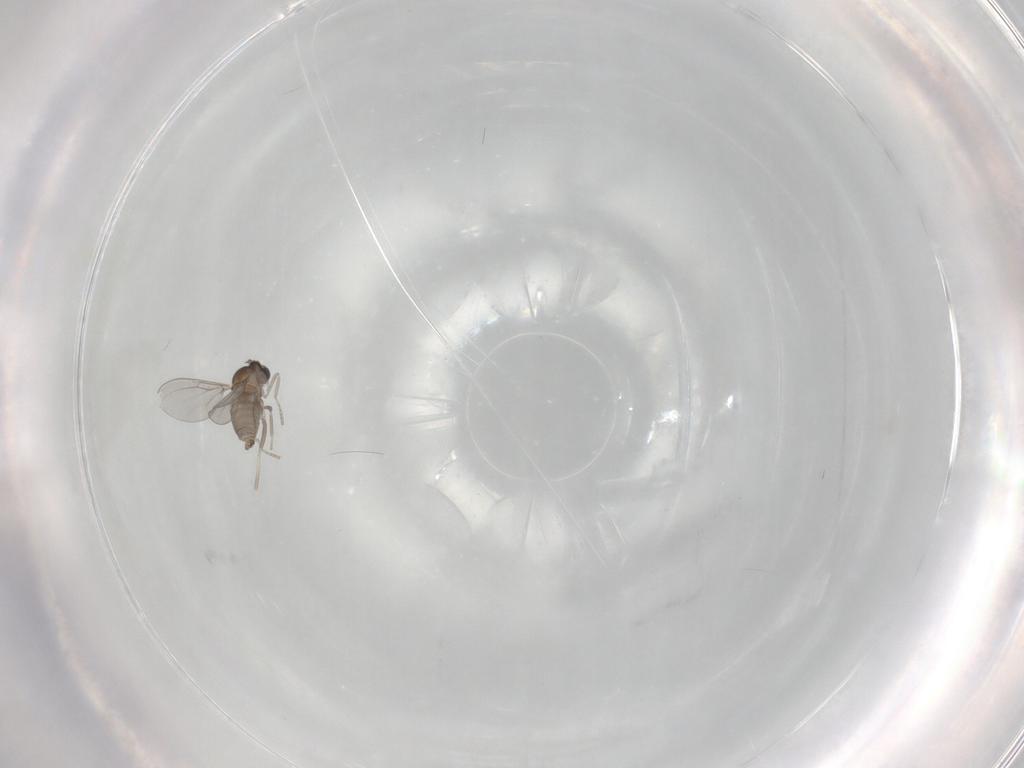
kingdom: Animalia
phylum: Arthropoda
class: Insecta
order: Diptera
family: Cecidomyiidae
